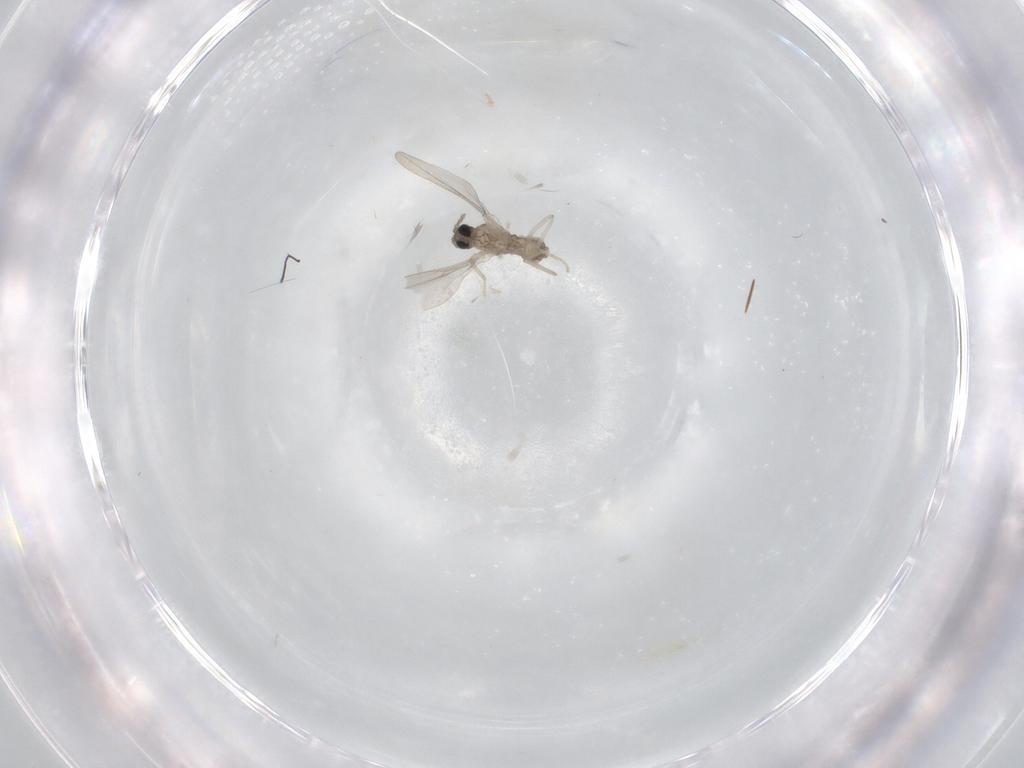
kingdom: Animalia
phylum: Arthropoda
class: Insecta
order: Diptera
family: Cecidomyiidae
